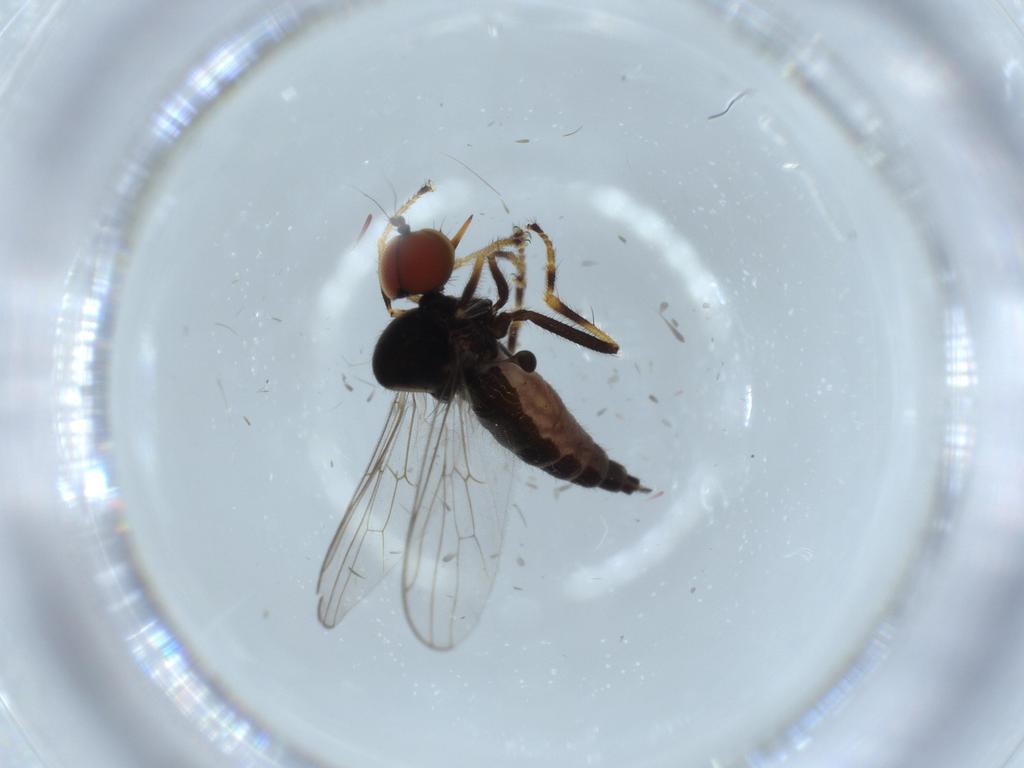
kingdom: Animalia
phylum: Arthropoda
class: Insecta
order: Diptera
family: Hybotidae
